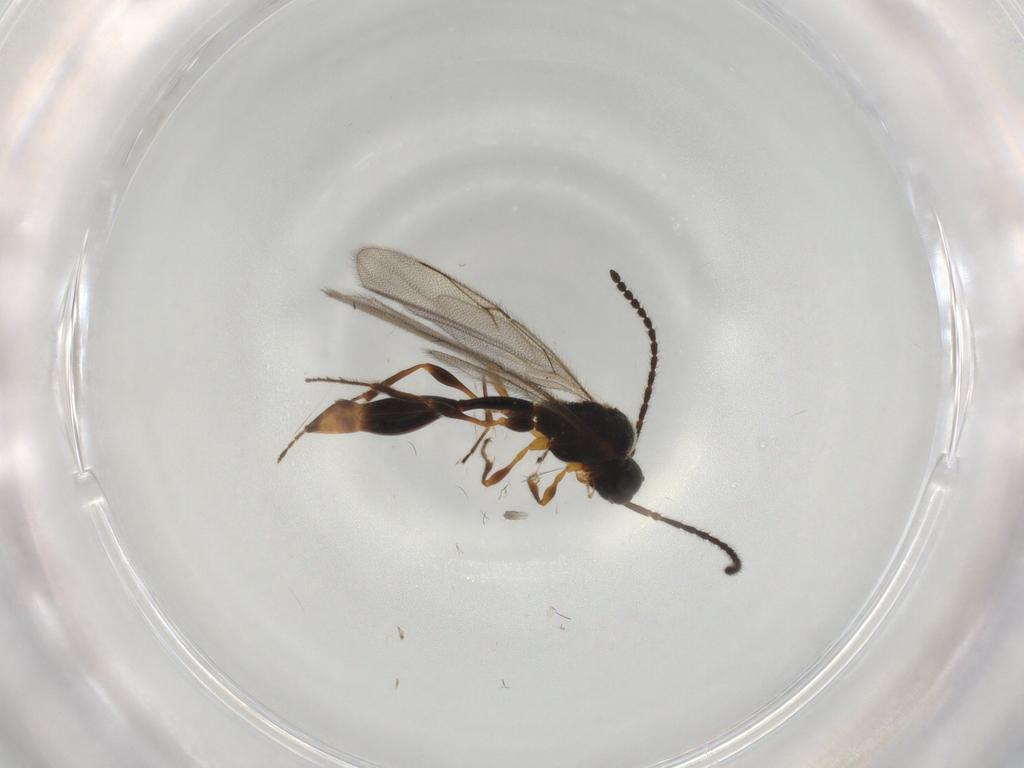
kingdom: Animalia
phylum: Arthropoda
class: Insecta
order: Hymenoptera
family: Diapriidae
